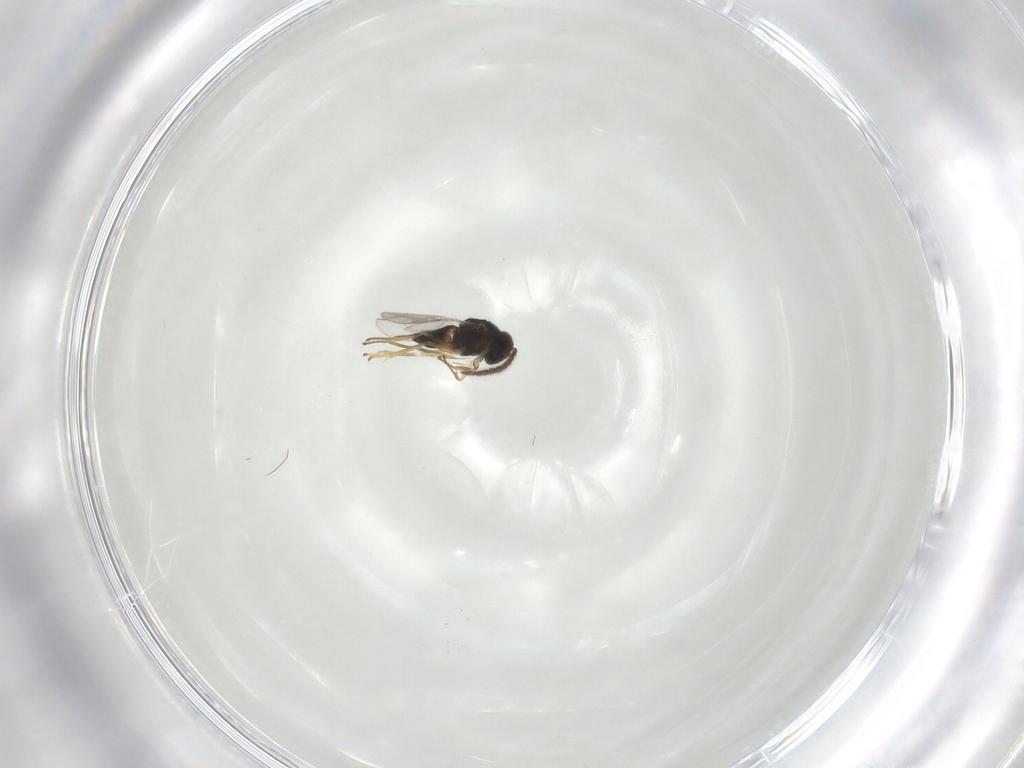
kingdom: Animalia
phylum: Arthropoda
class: Insecta
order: Hymenoptera
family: Formicidae
